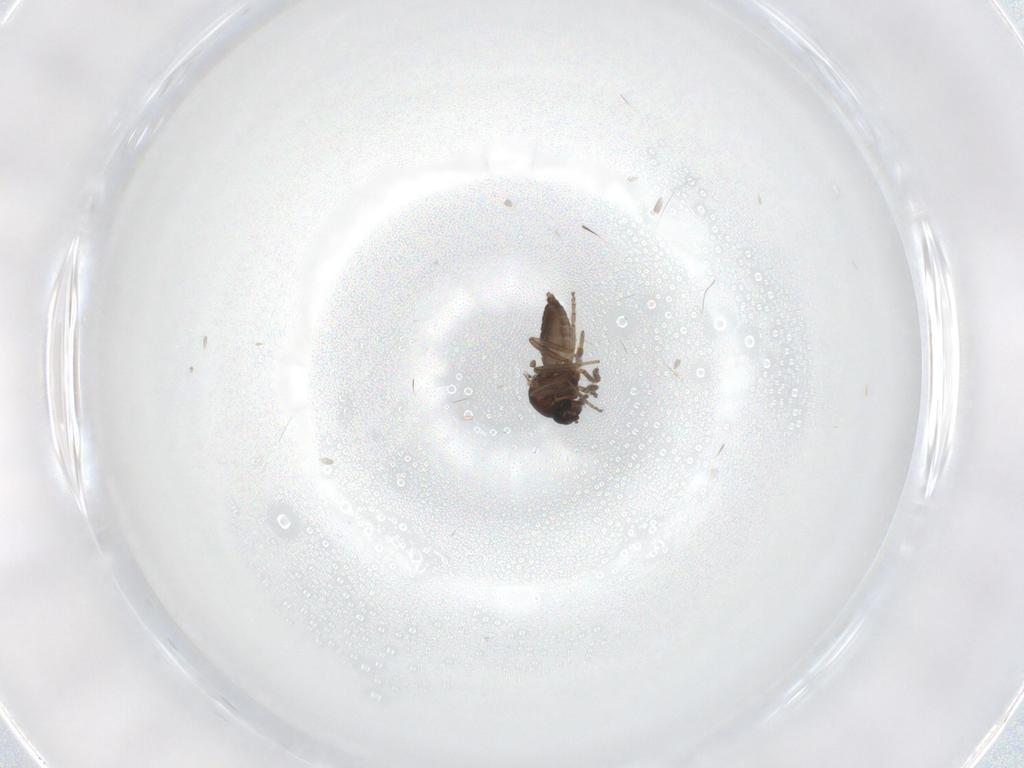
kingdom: Animalia
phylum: Arthropoda
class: Insecta
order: Diptera
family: Ceratopogonidae
